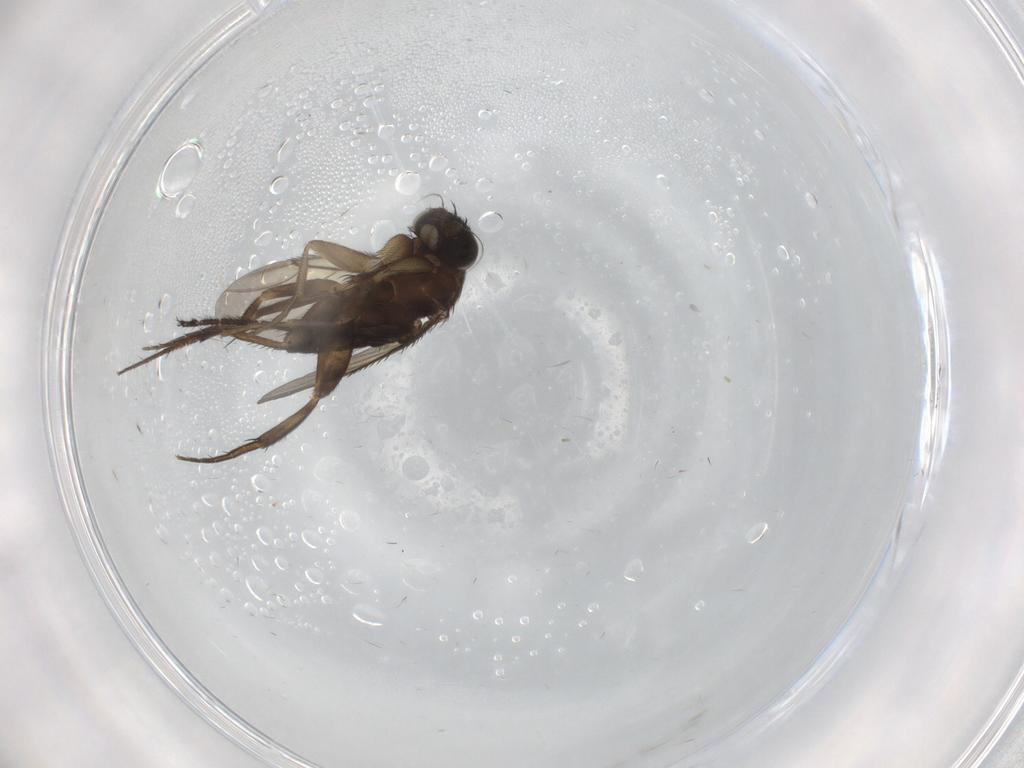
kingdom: Animalia
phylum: Arthropoda
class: Insecta
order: Diptera
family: Phoridae
